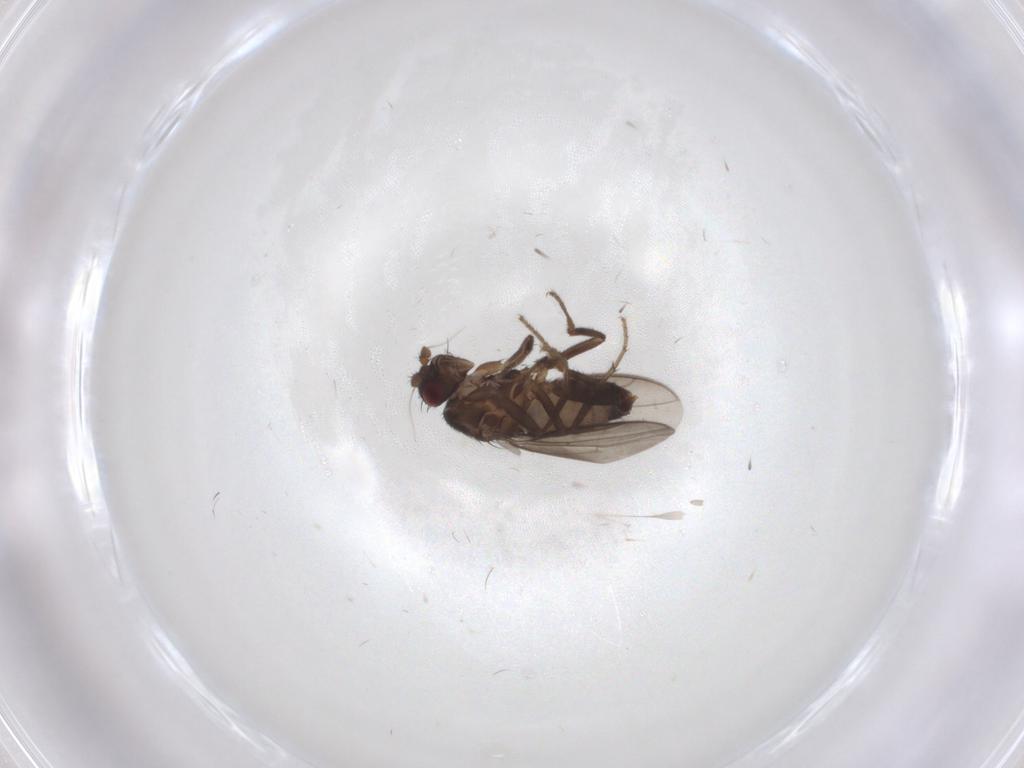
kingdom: Animalia
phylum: Arthropoda
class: Insecta
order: Diptera
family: Sphaeroceridae
